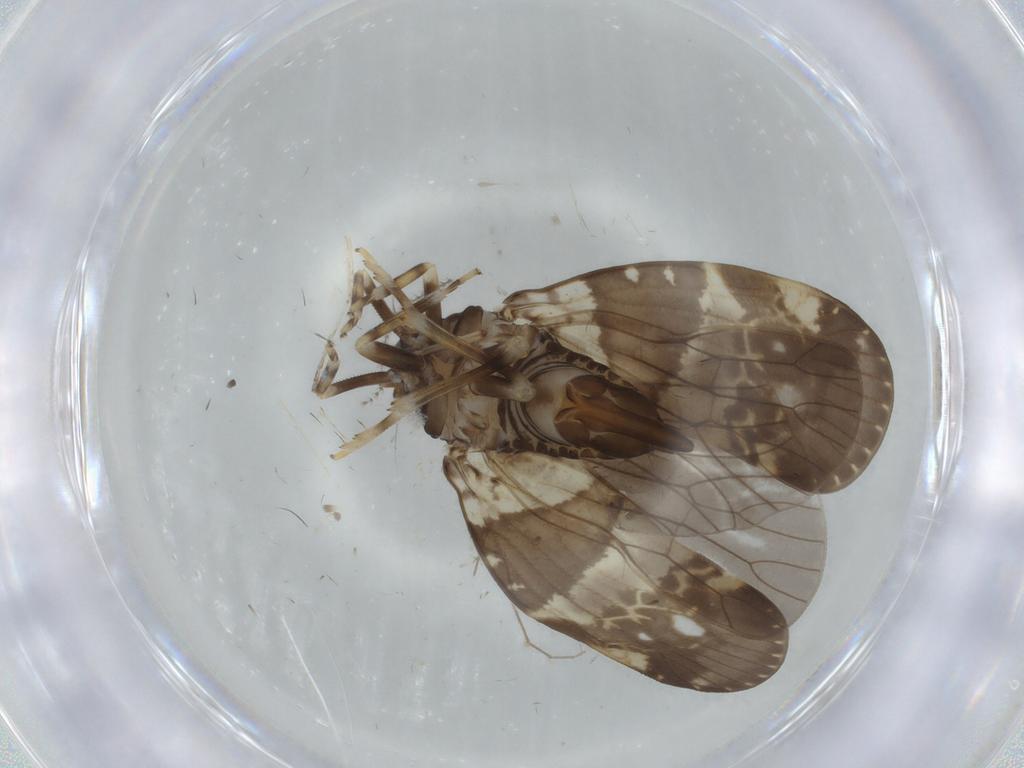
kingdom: Animalia
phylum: Arthropoda
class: Insecta
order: Hemiptera
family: Cixiidae
